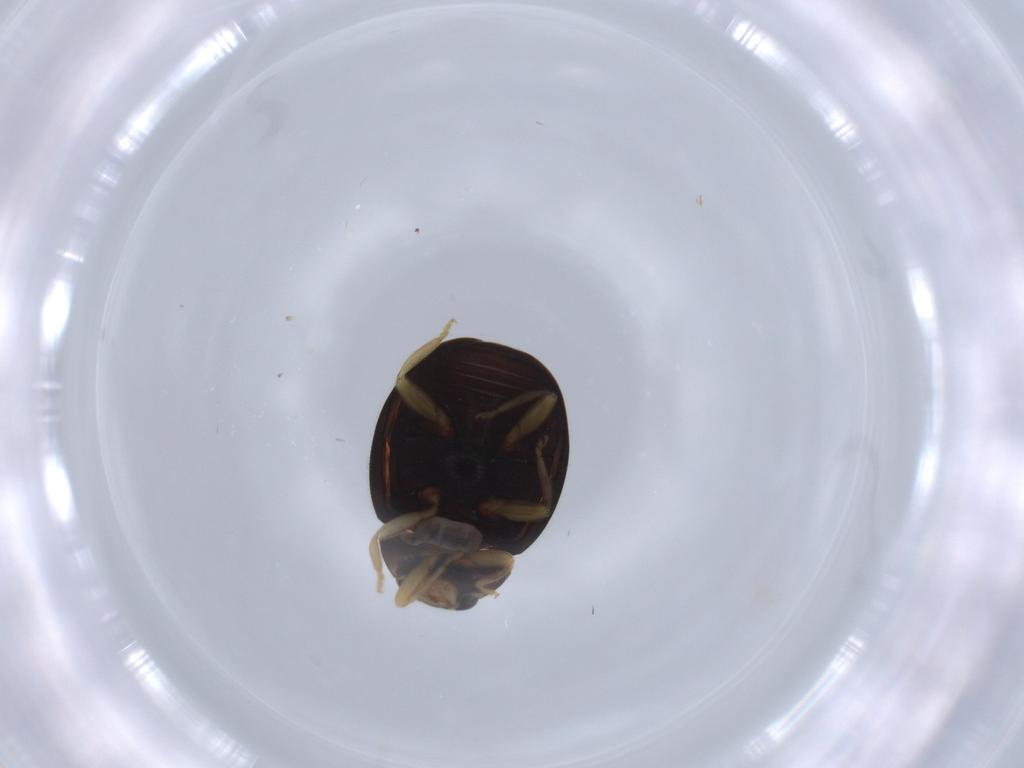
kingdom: Animalia
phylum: Arthropoda
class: Insecta
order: Coleoptera
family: Coccinellidae
